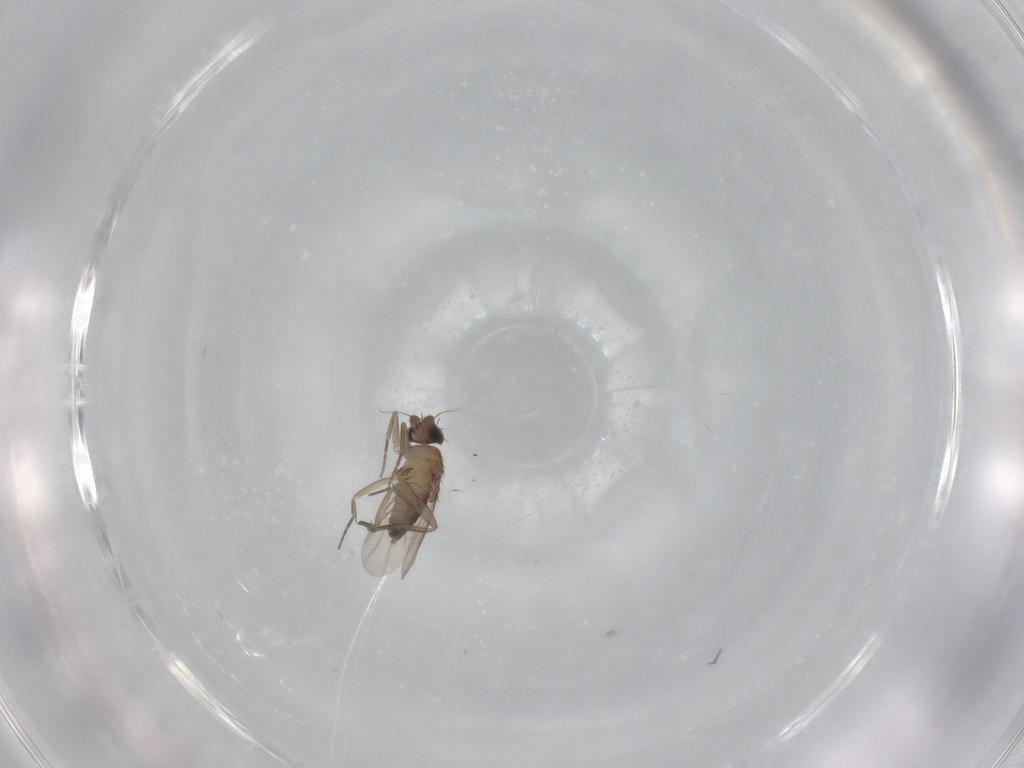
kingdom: Animalia
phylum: Arthropoda
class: Insecta
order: Diptera
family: Phoridae
